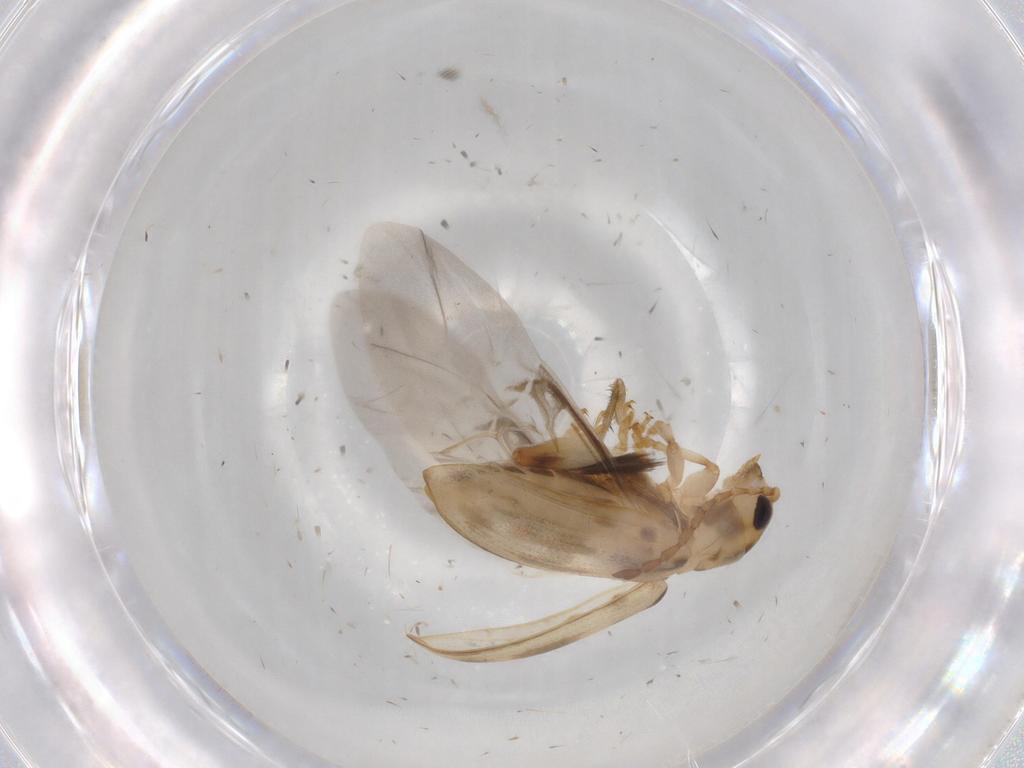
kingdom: Animalia
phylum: Arthropoda
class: Insecta
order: Coleoptera
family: Chrysomelidae
